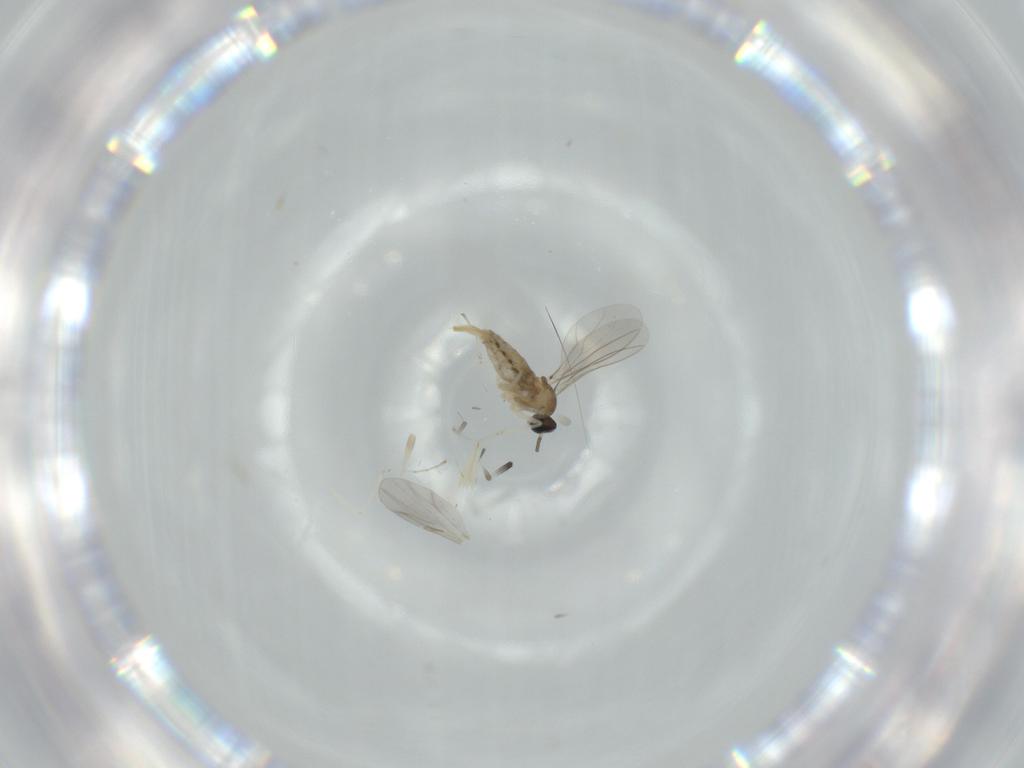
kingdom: Animalia
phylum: Arthropoda
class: Insecta
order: Diptera
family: Cecidomyiidae
